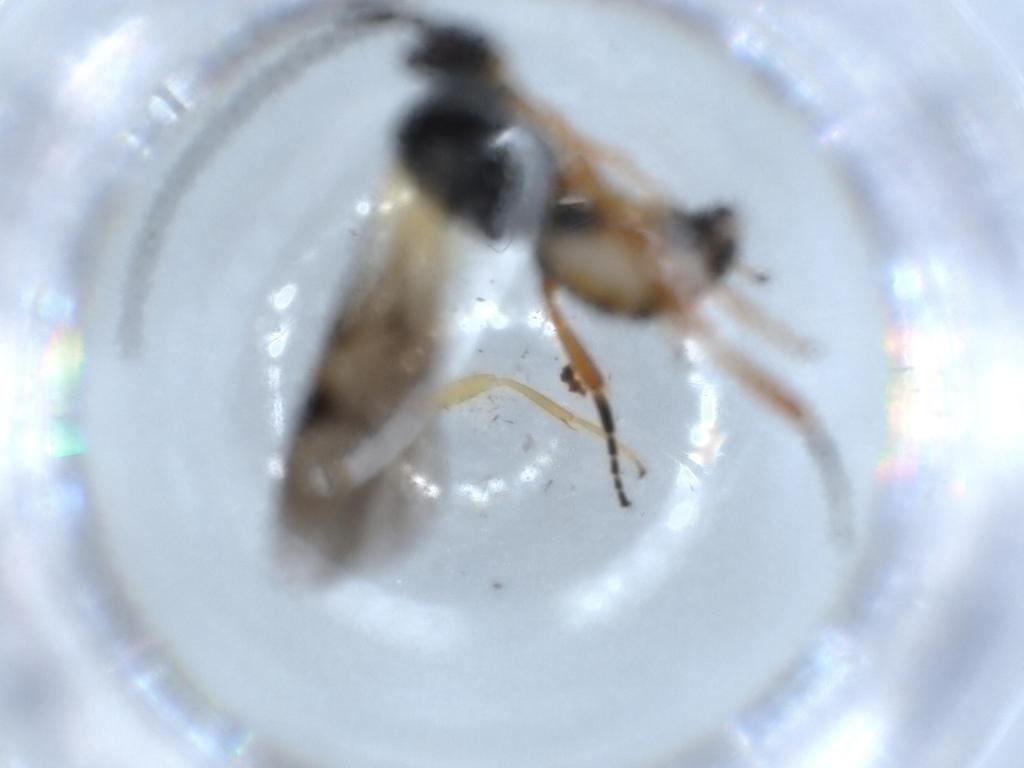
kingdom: Animalia
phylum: Arthropoda
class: Insecta
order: Hymenoptera
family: Braconidae
